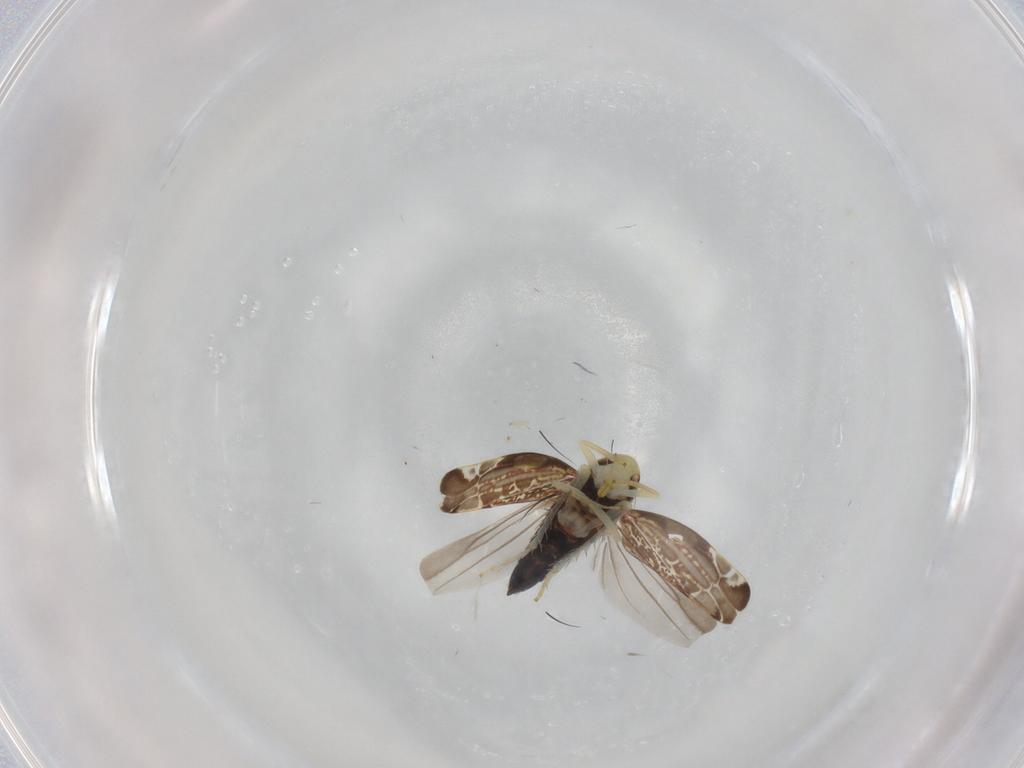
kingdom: Animalia
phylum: Arthropoda
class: Insecta
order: Hemiptera
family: Cicadellidae
